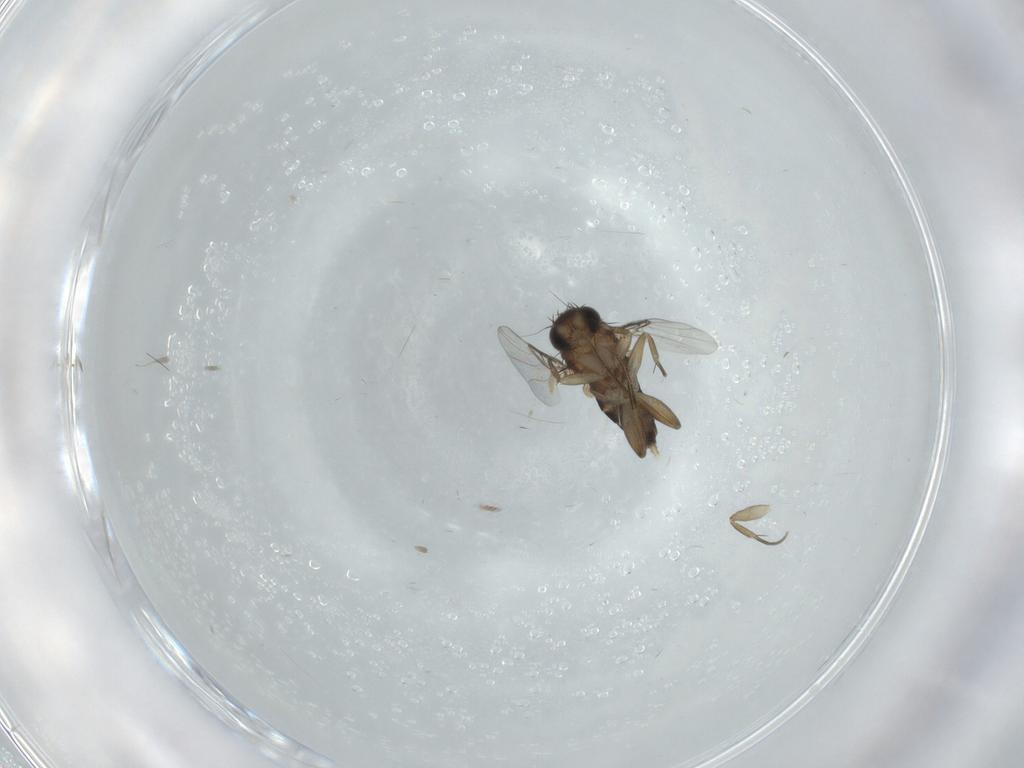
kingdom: Animalia
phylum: Arthropoda
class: Insecta
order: Diptera
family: Phoridae
